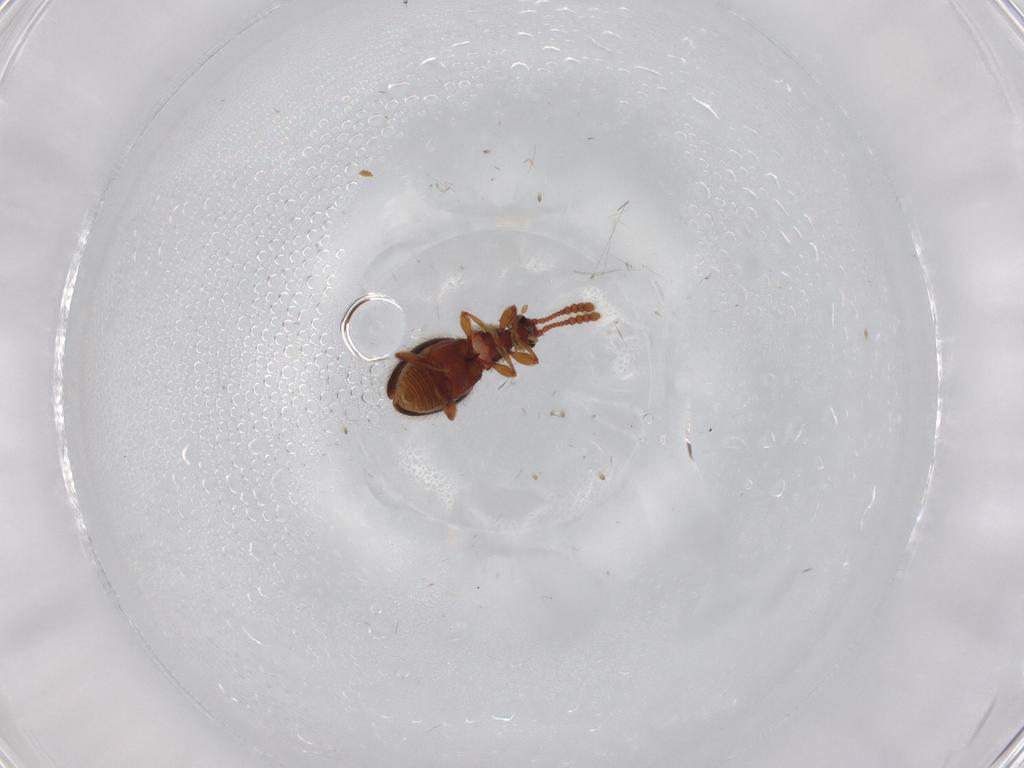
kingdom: Animalia
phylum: Arthropoda
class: Insecta
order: Coleoptera
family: Staphylinidae
